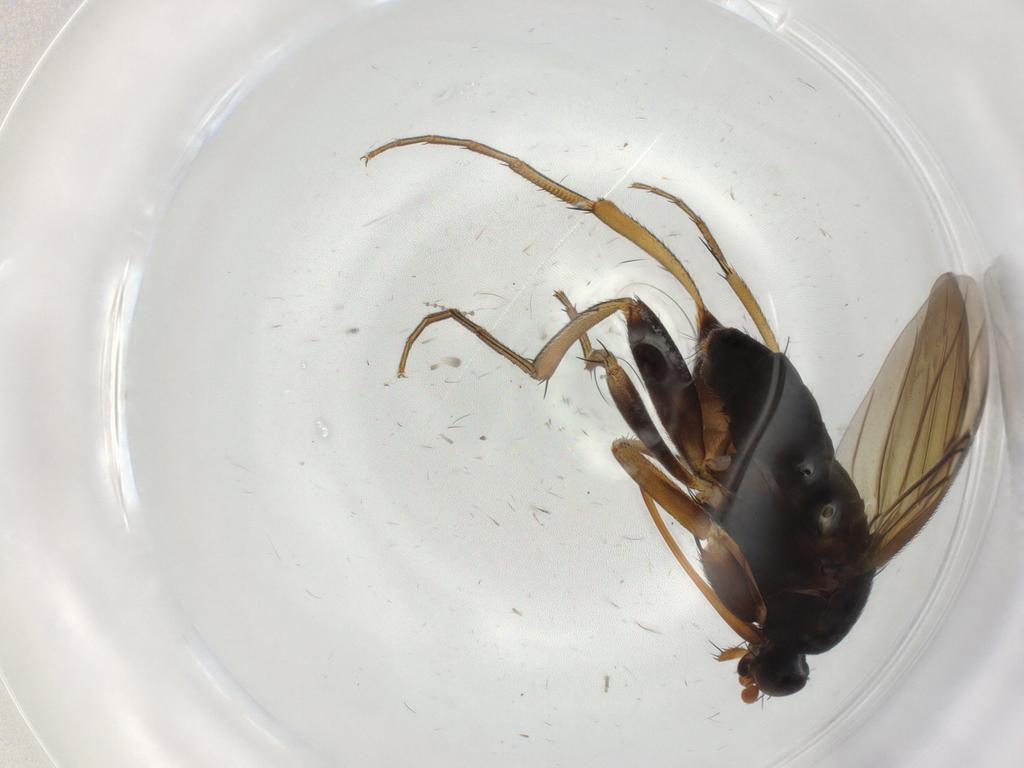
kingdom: Animalia
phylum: Arthropoda
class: Insecta
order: Diptera
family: Phoridae
